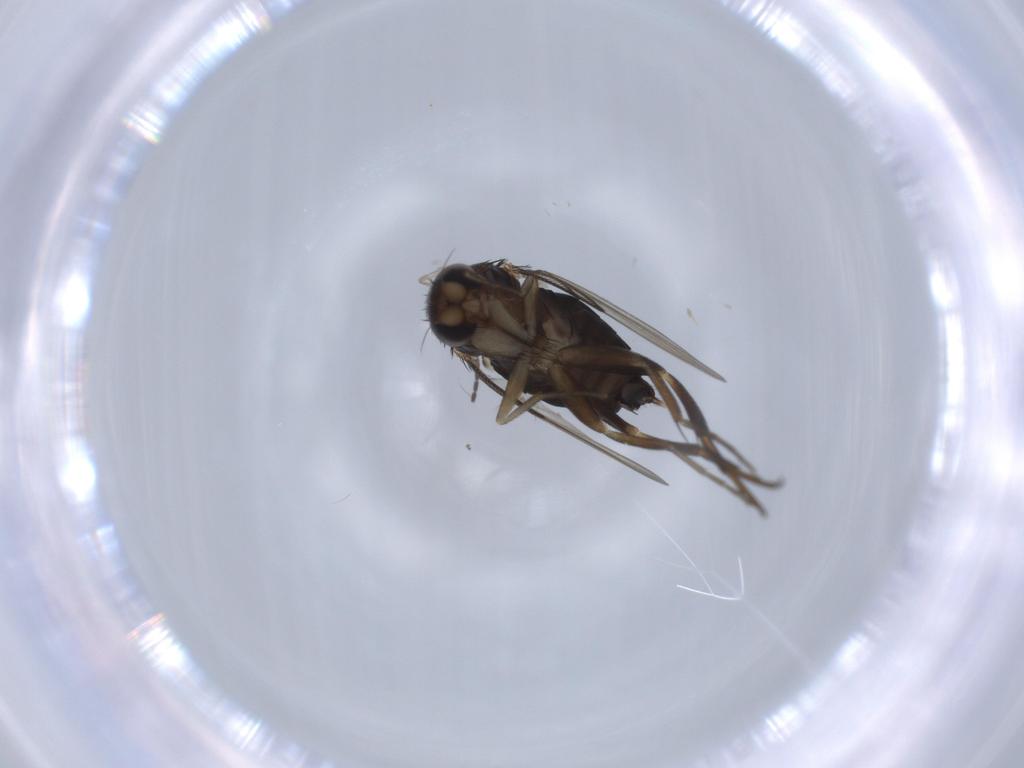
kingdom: Animalia
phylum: Arthropoda
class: Insecta
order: Diptera
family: Phoridae
